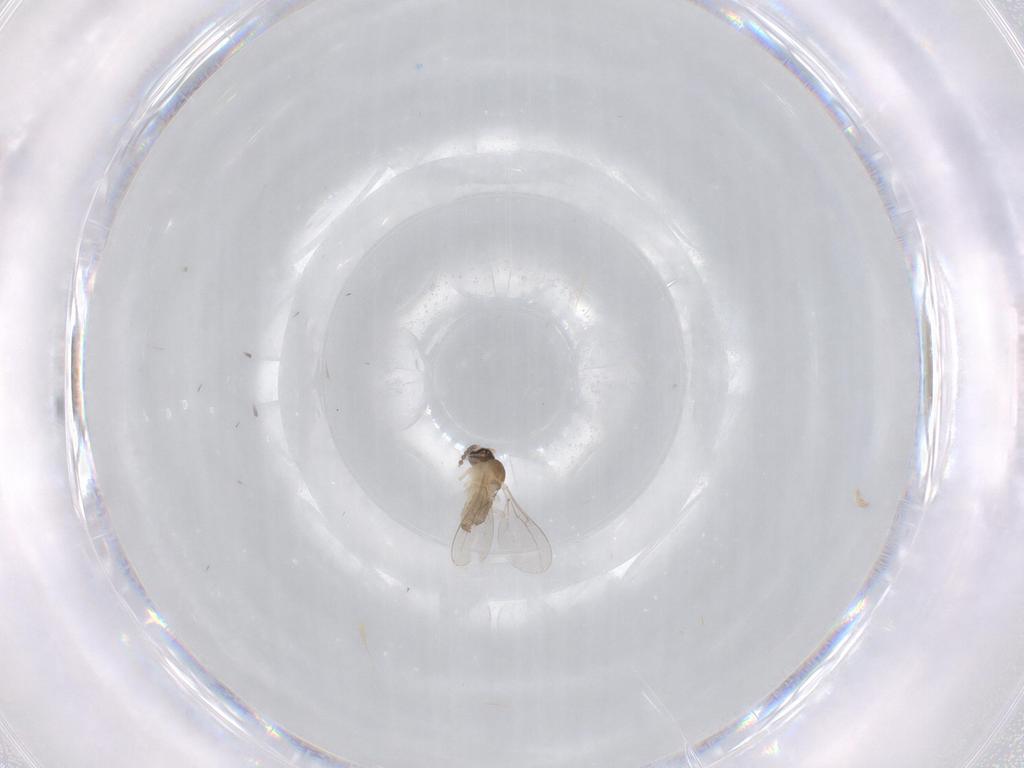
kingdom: Animalia
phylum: Arthropoda
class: Insecta
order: Diptera
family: Cecidomyiidae
